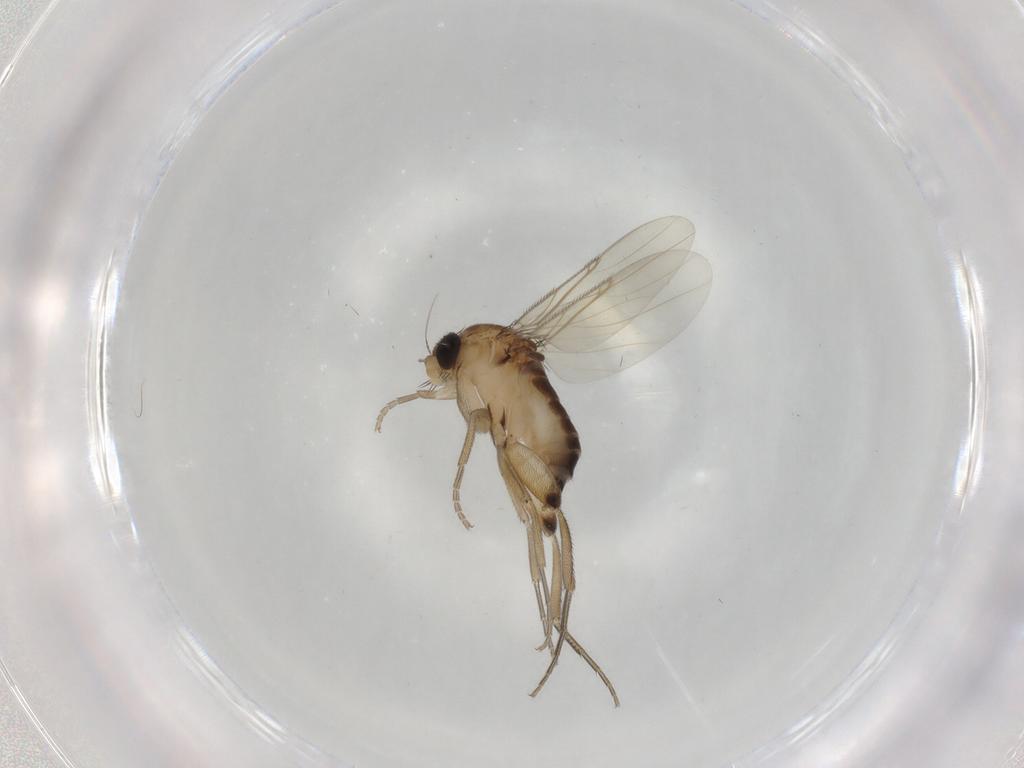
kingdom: Animalia
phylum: Arthropoda
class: Insecta
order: Diptera
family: Phoridae
